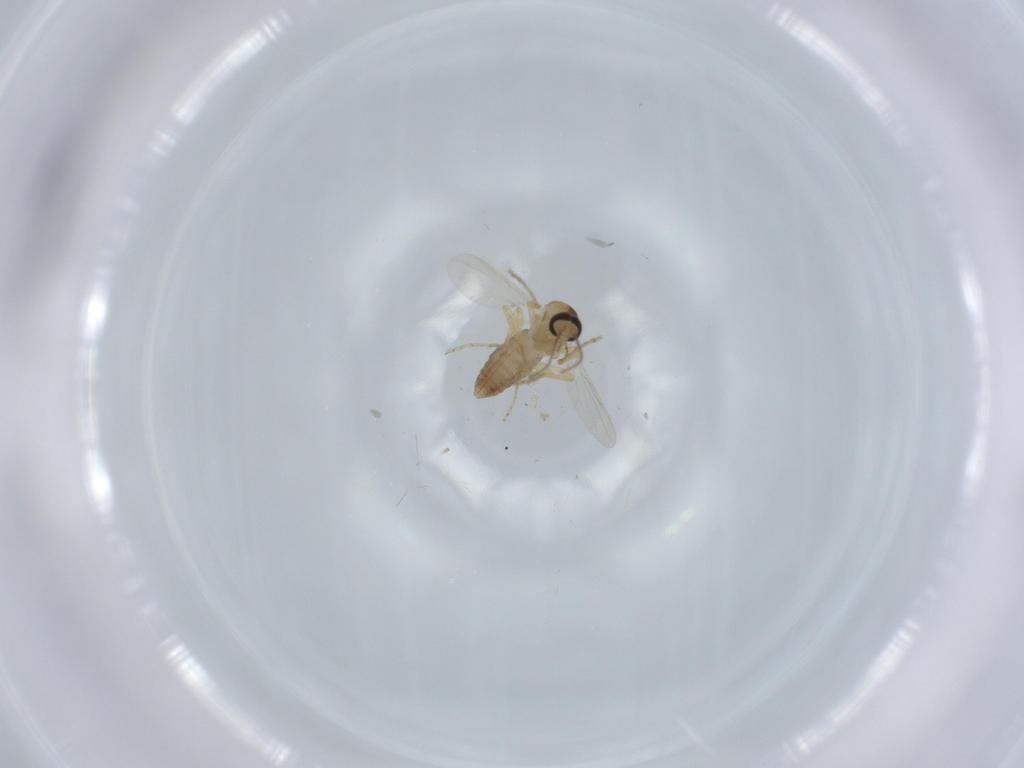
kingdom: Animalia
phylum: Arthropoda
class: Insecta
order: Diptera
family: Ceratopogonidae
